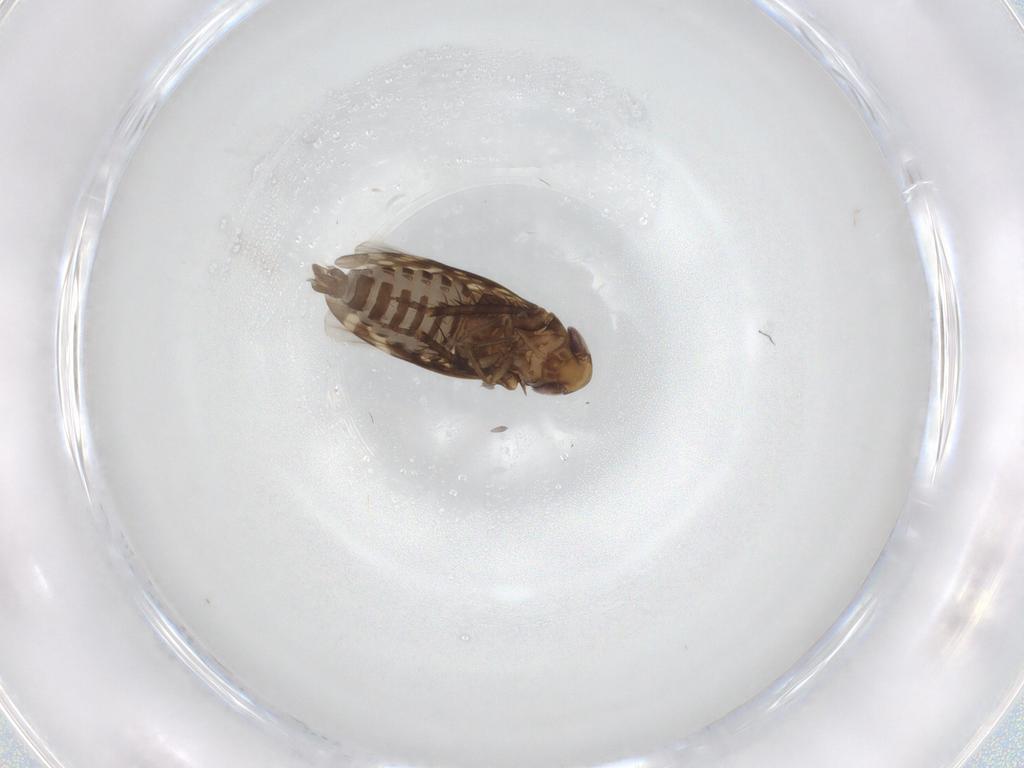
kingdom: Animalia
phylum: Arthropoda
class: Insecta
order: Hemiptera
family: Cicadellidae
